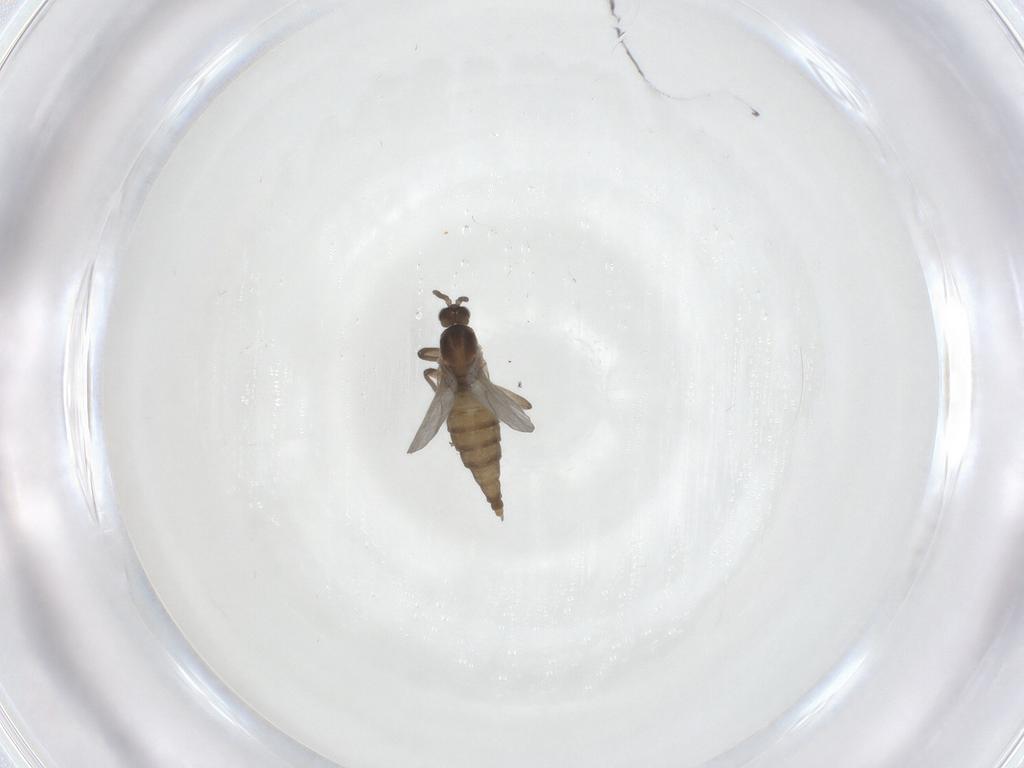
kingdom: Animalia
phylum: Arthropoda
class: Insecta
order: Diptera
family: Cecidomyiidae
